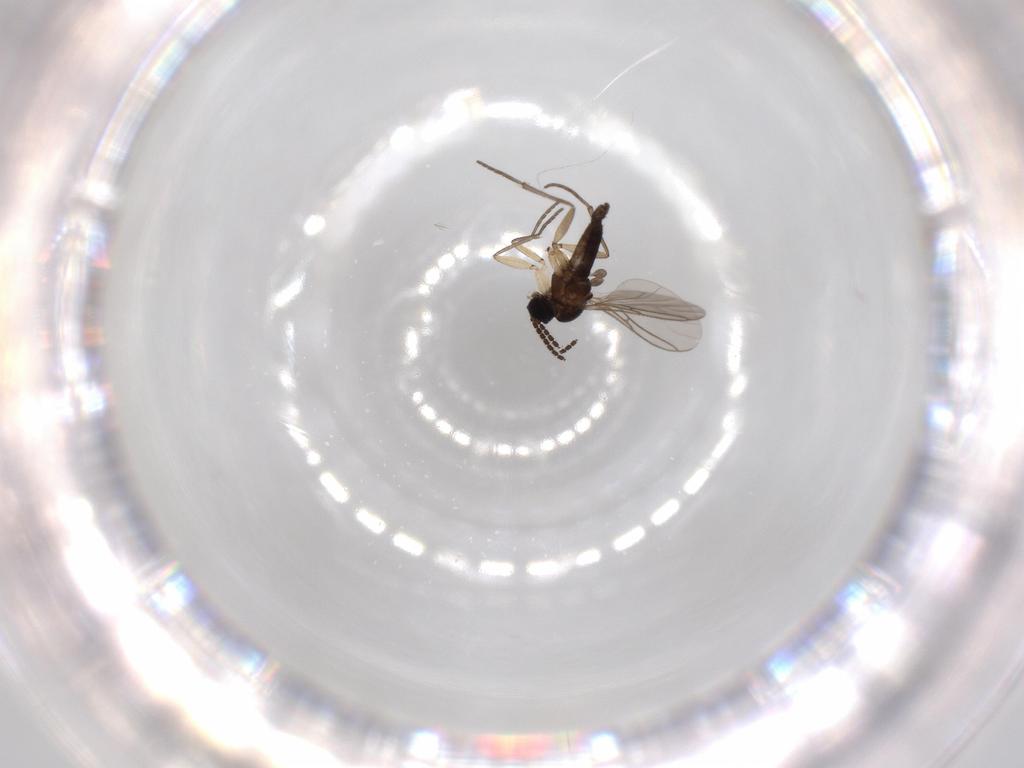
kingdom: Animalia
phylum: Arthropoda
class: Insecta
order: Diptera
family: Sciaridae
